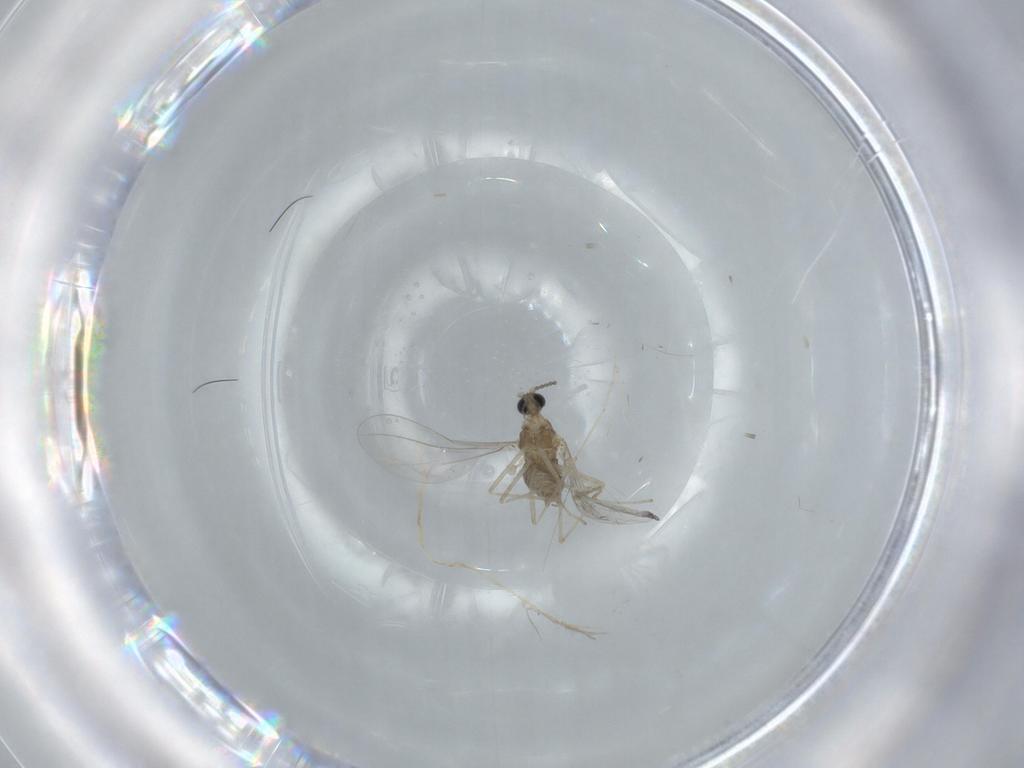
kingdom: Animalia
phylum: Arthropoda
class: Insecta
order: Diptera
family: Cecidomyiidae
